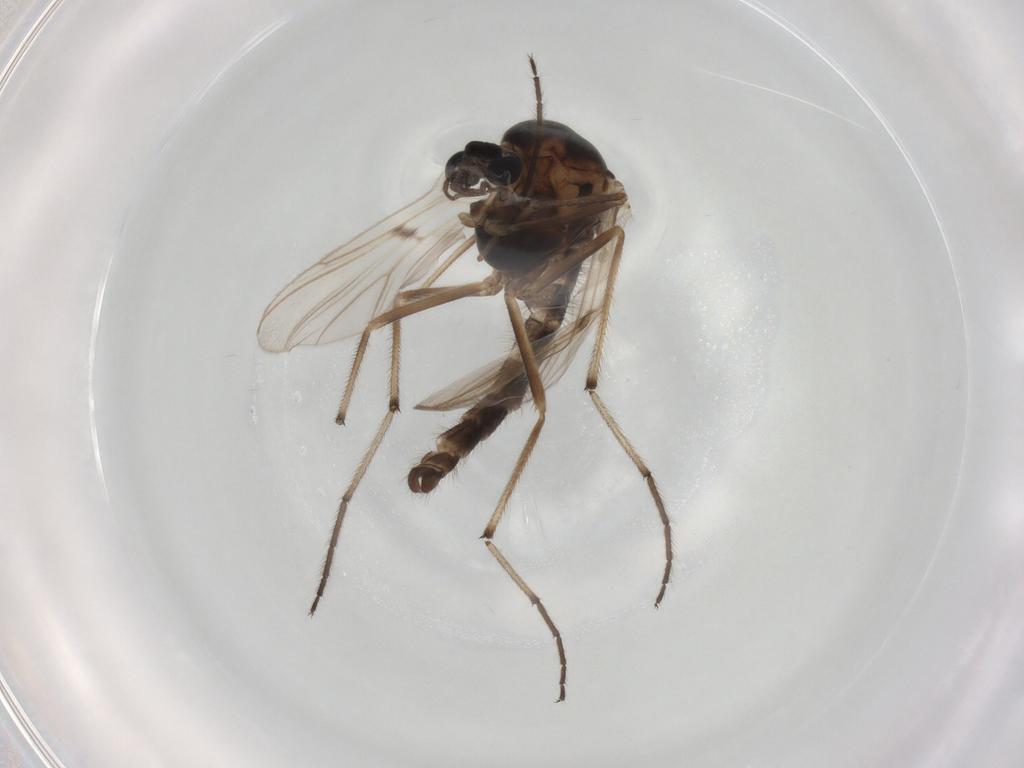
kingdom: Animalia
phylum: Arthropoda
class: Insecta
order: Diptera
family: Chironomidae
